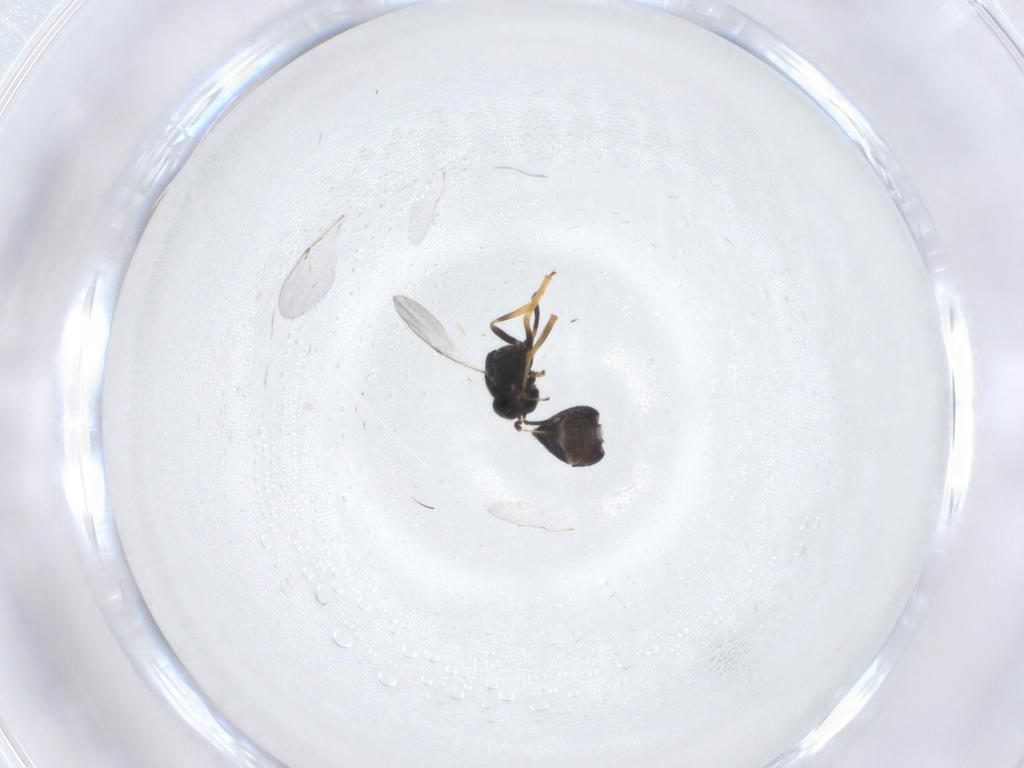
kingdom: Animalia
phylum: Arthropoda
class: Insecta
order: Hymenoptera
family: Encyrtidae
